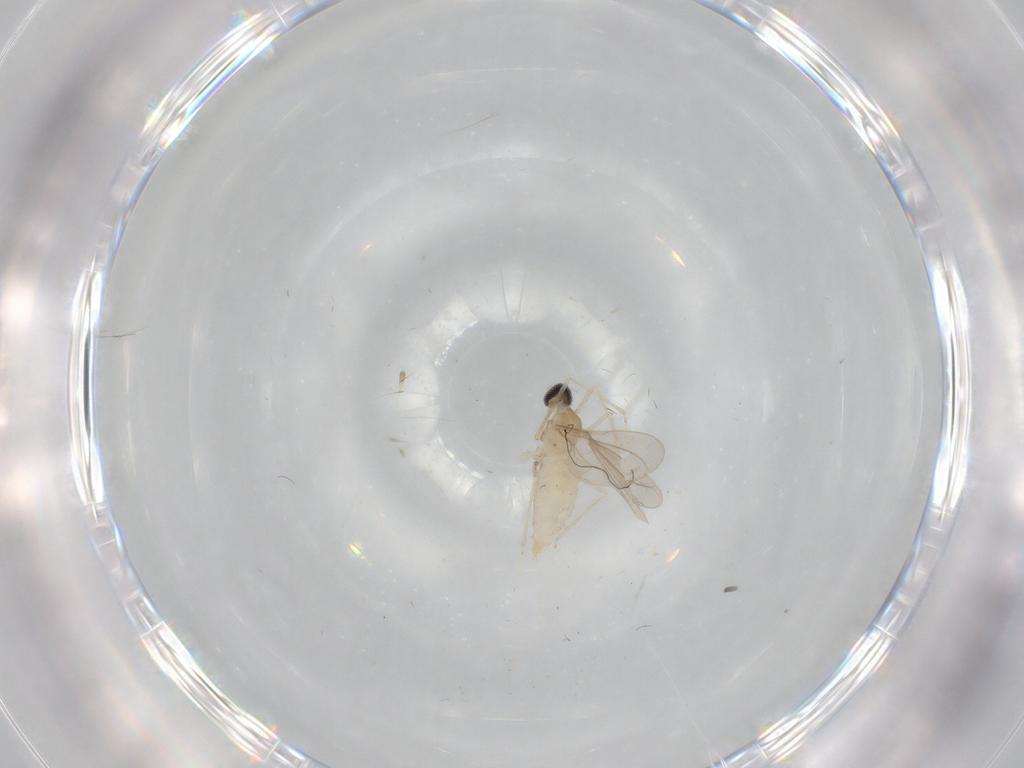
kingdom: Animalia
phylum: Arthropoda
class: Insecta
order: Diptera
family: Cecidomyiidae
